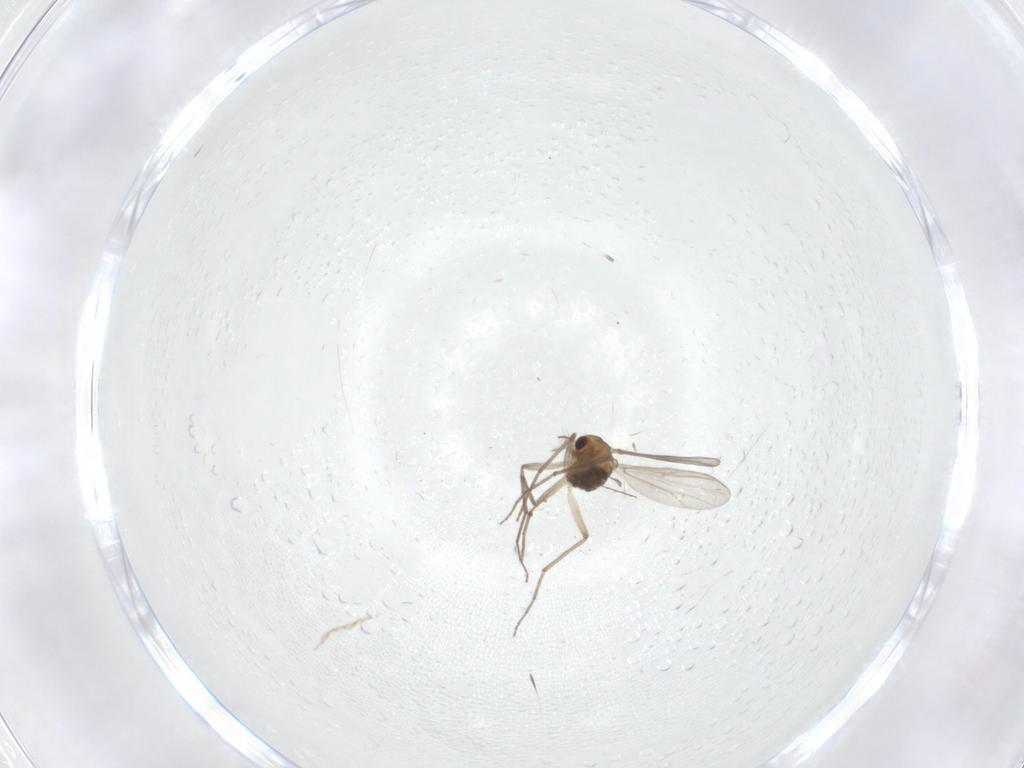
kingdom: Animalia
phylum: Arthropoda
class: Insecta
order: Diptera
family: Chironomidae
